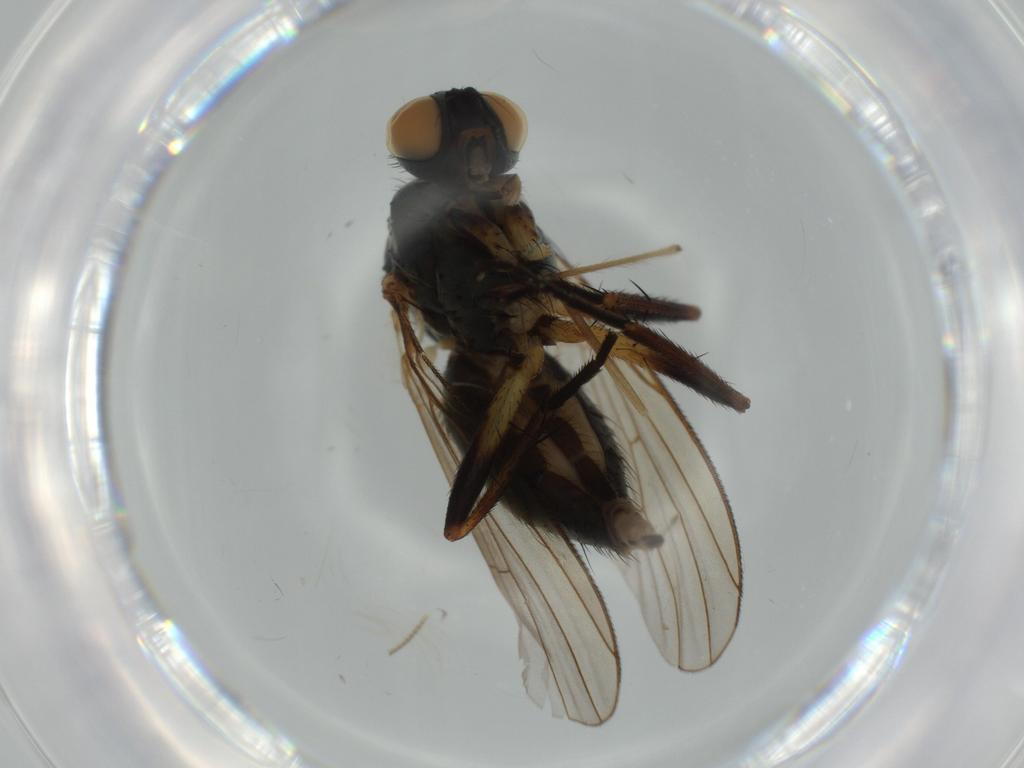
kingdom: Animalia
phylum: Arthropoda
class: Insecta
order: Diptera
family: Chironomidae
